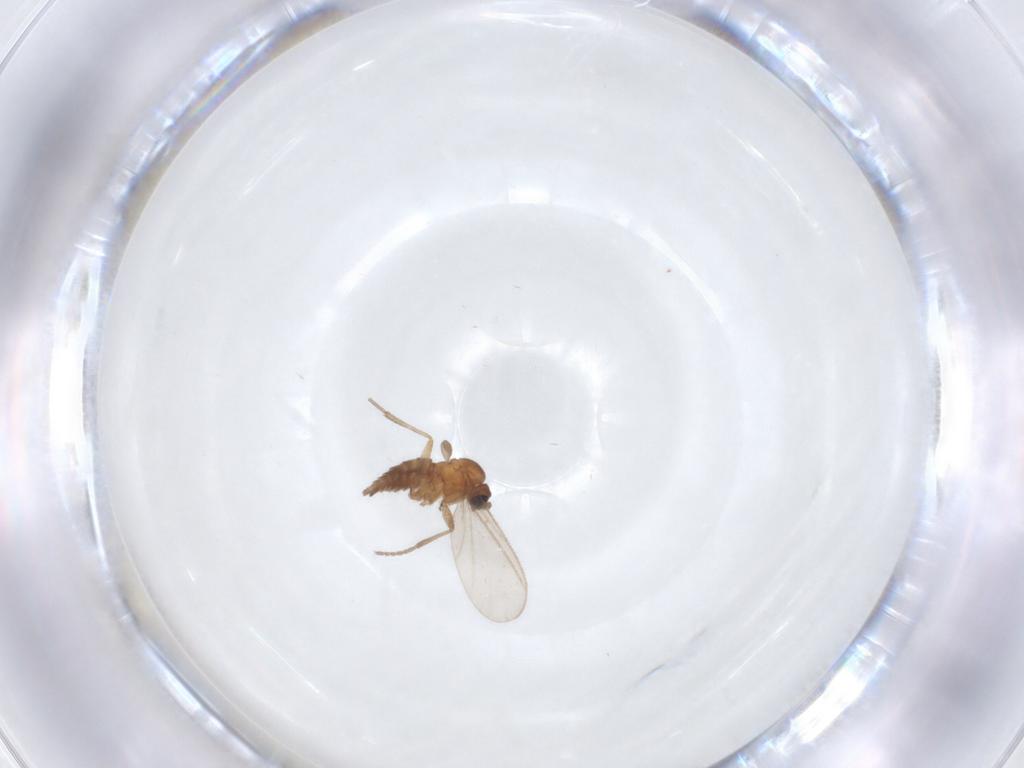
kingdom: Animalia
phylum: Arthropoda
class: Insecta
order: Diptera
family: Sciaridae
